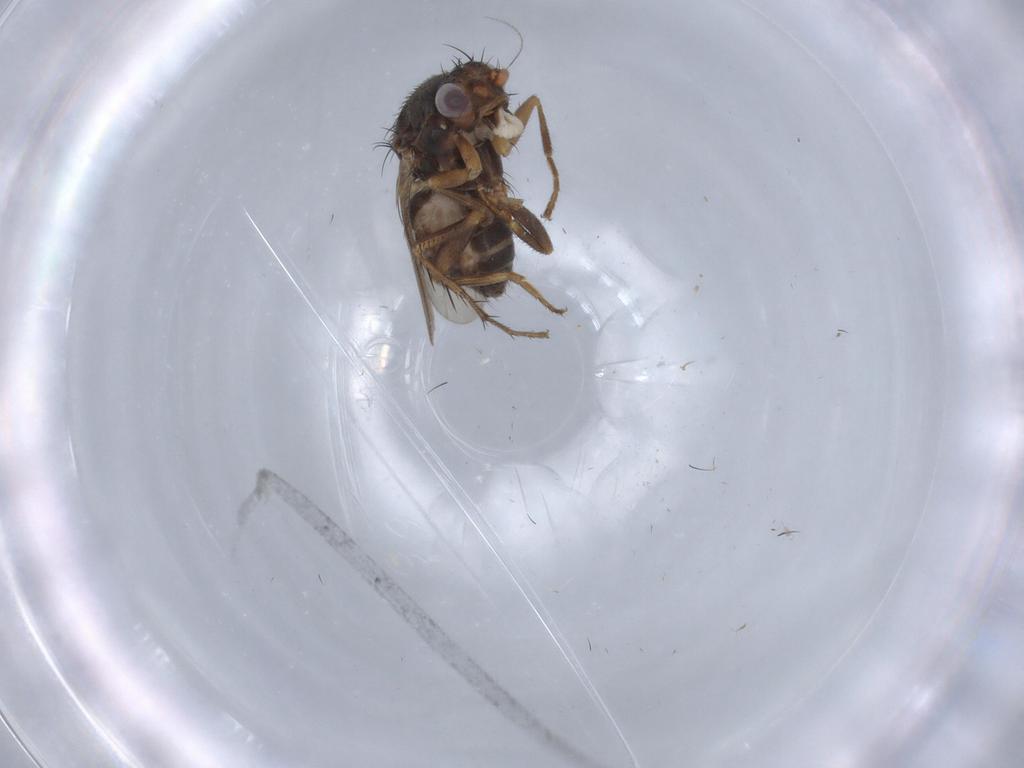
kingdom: Animalia
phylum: Arthropoda
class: Insecta
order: Diptera
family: Sphaeroceridae
